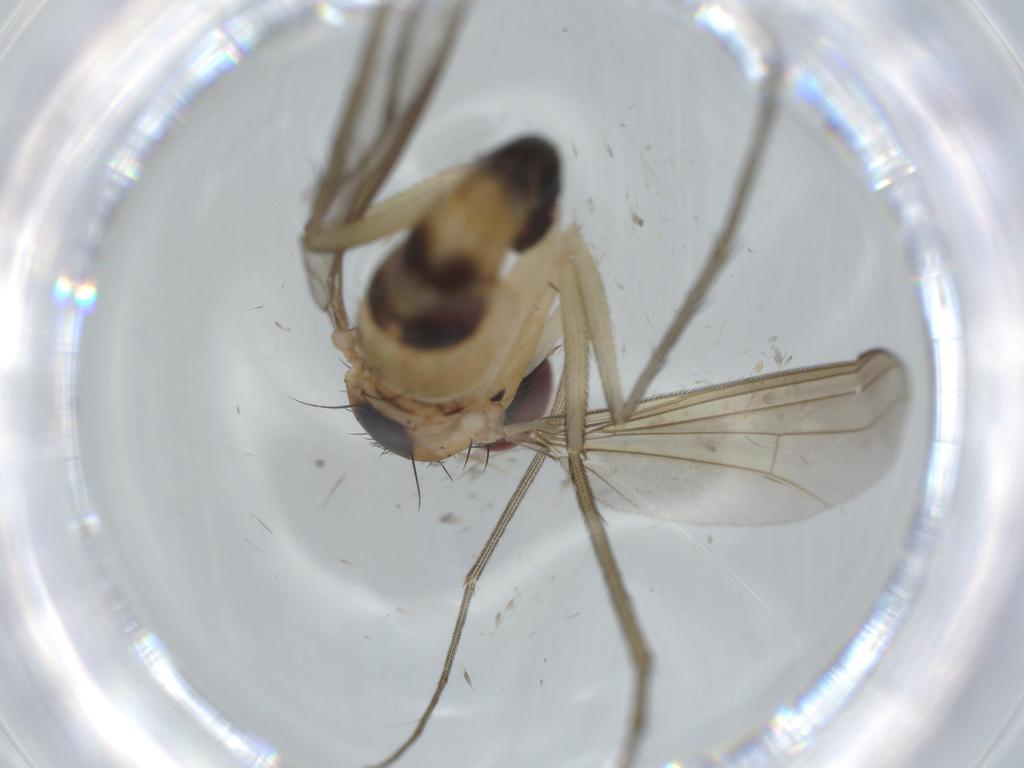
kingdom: Animalia
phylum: Arthropoda
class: Insecta
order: Diptera
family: Dolichopodidae
